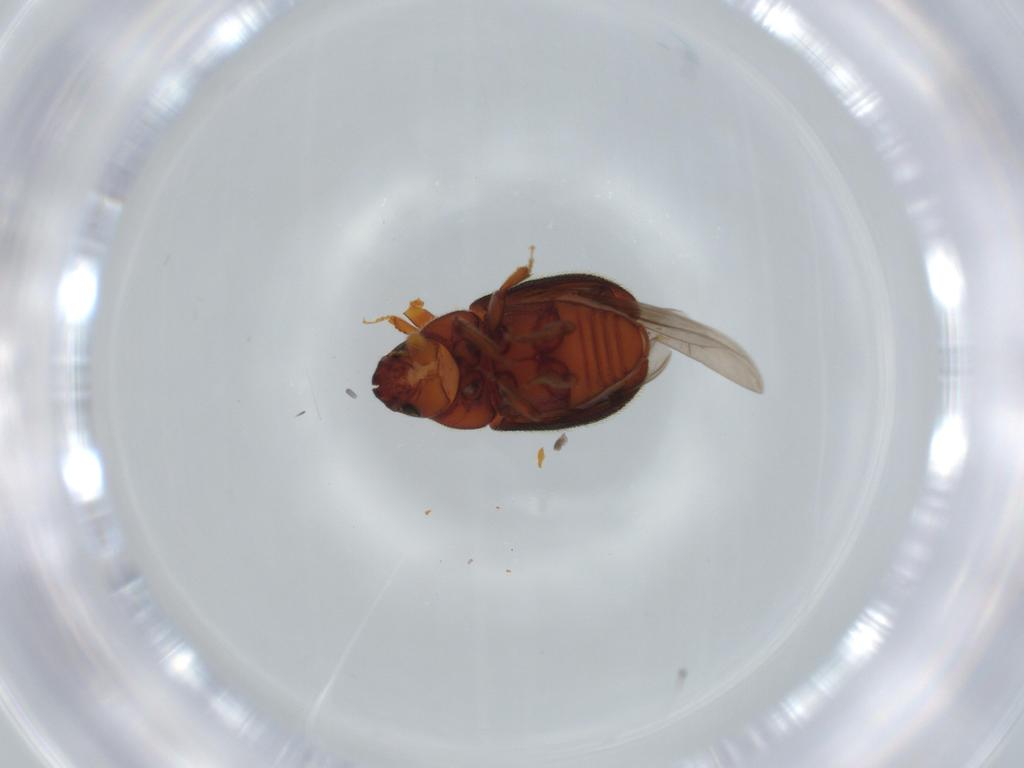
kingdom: Animalia
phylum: Arthropoda
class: Insecta
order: Coleoptera
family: Curculionidae
